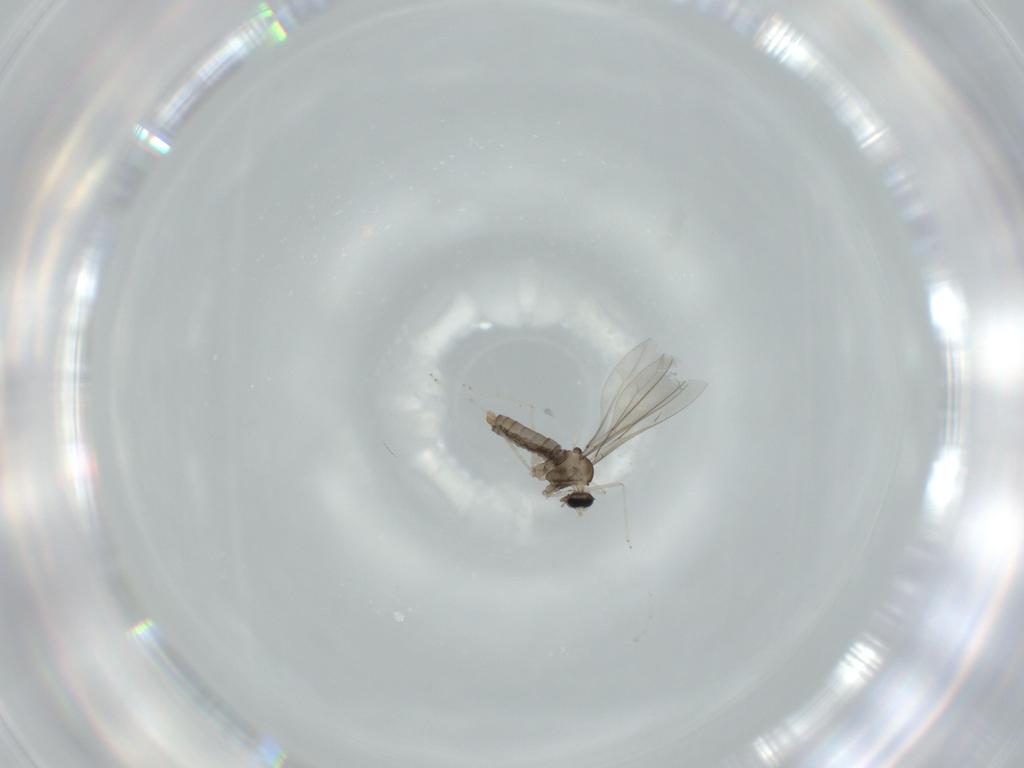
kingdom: Animalia
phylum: Arthropoda
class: Insecta
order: Diptera
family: Cecidomyiidae
